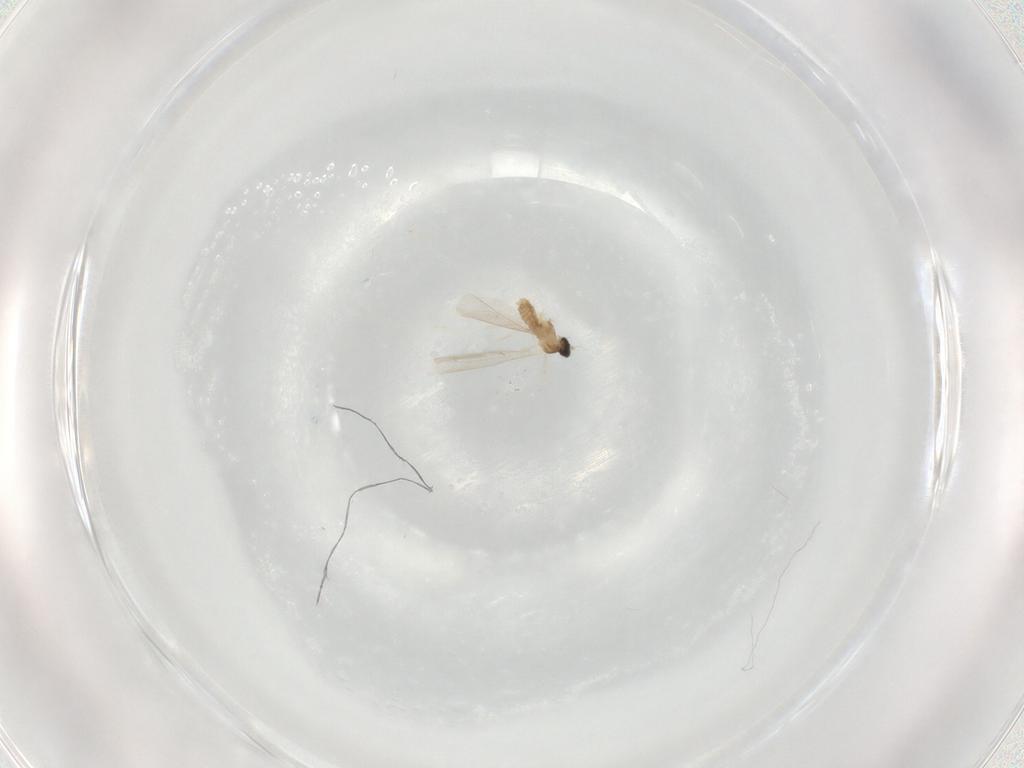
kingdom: Animalia
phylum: Arthropoda
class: Insecta
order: Diptera
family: Cecidomyiidae
